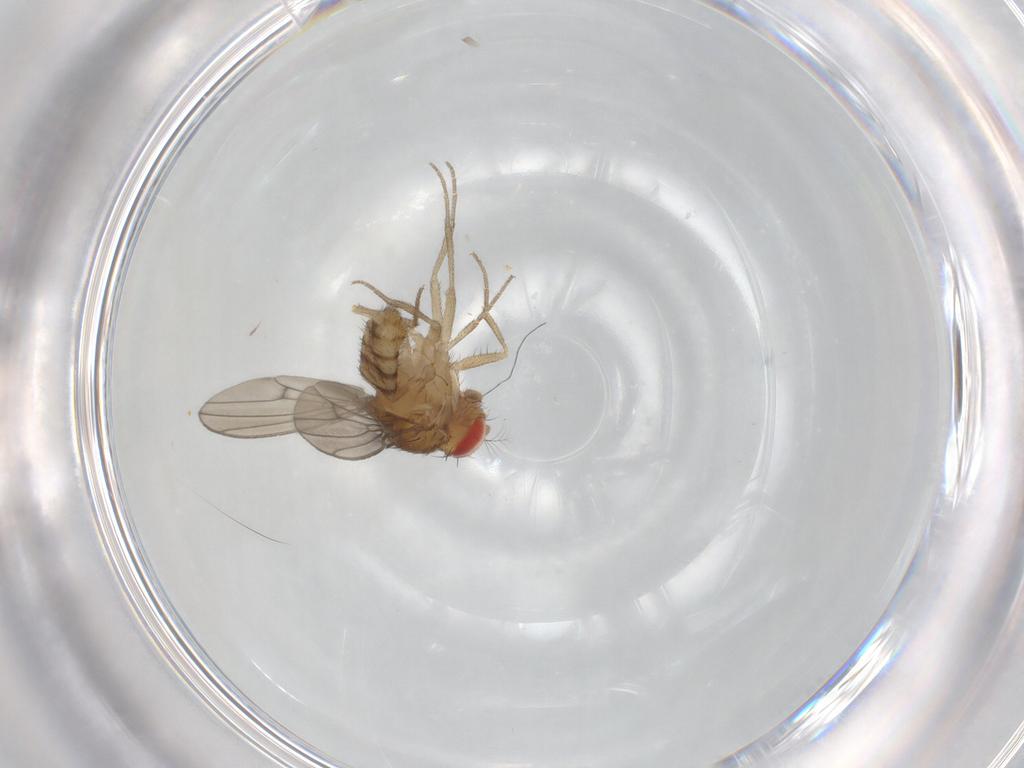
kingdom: Animalia
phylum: Arthropoda
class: Insecta
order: Diptera
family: Drosophilidae
